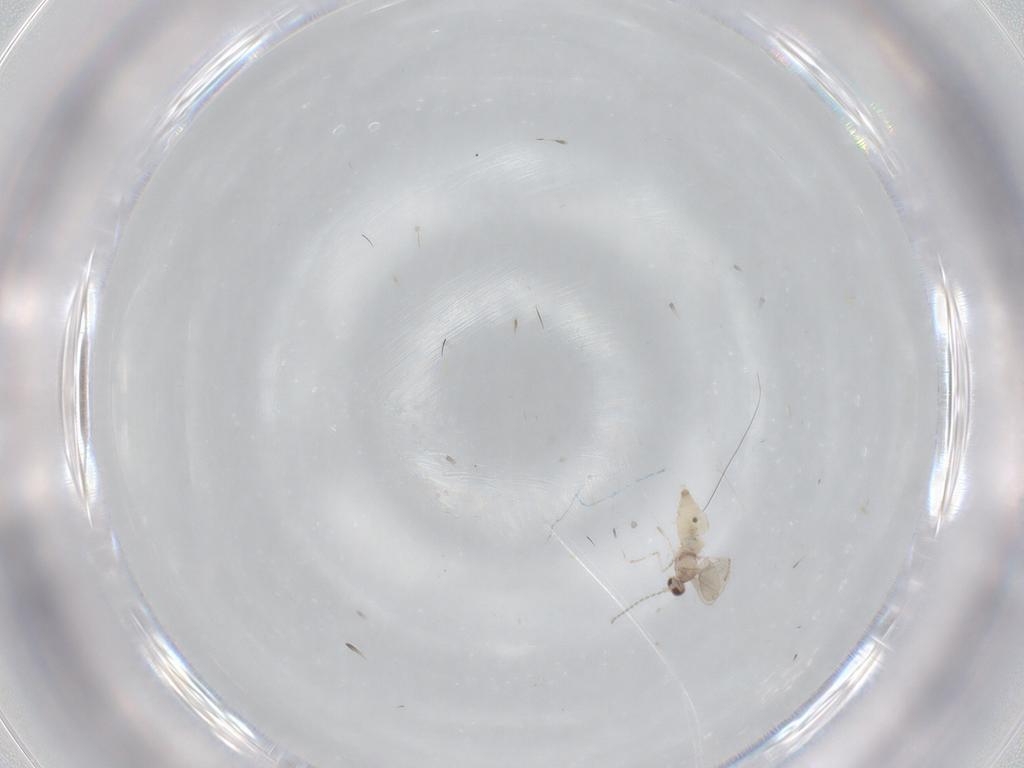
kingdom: Animalia
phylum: Arthropoda
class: Insecta
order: Diptera
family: Cecidomyiidae
